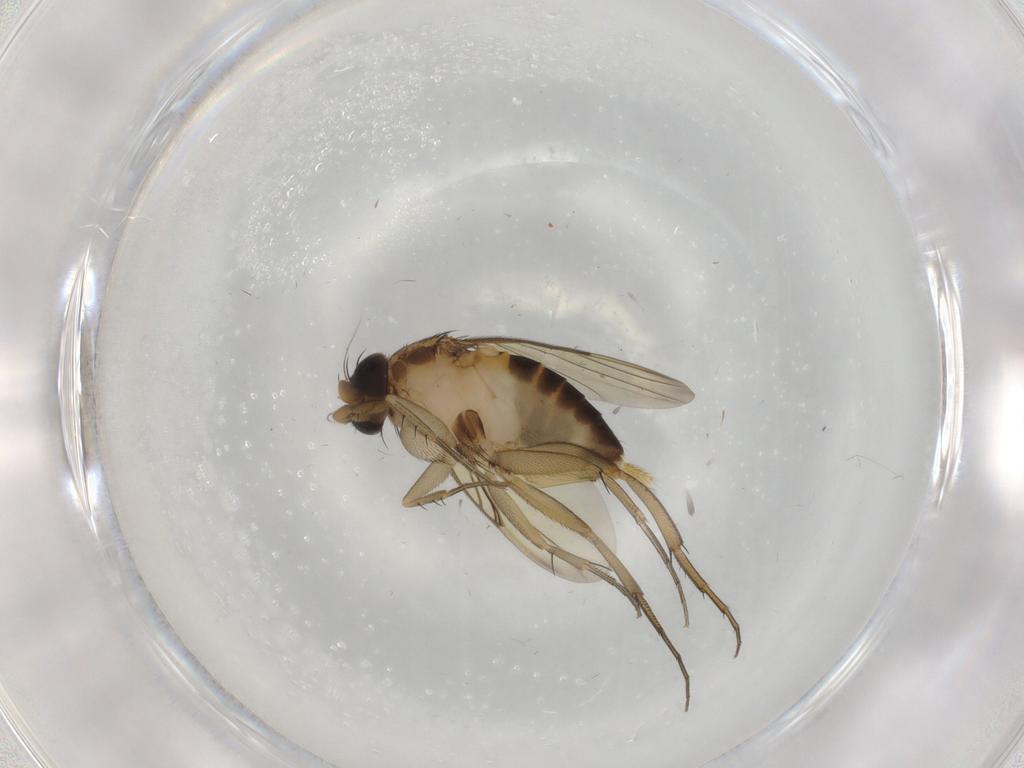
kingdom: Animalia
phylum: Arthropoda
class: Insecta
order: Diptera
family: Phoridae
